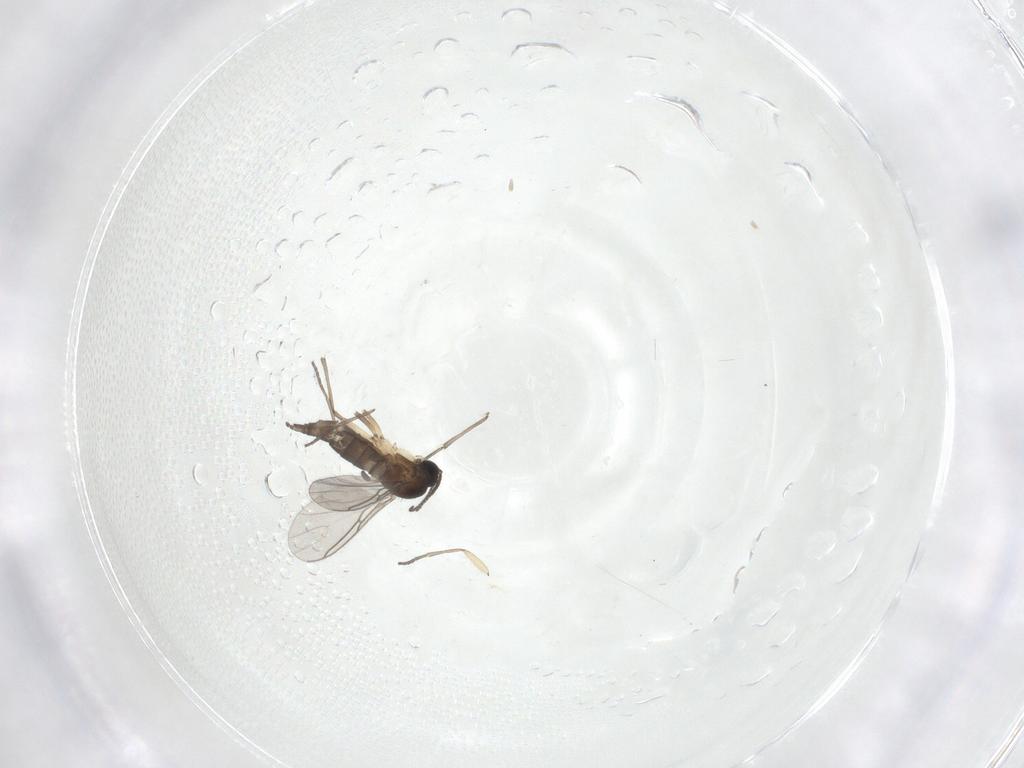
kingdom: Animalia
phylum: Arthropoda
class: Insecta
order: Diptera
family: Sciaridae
